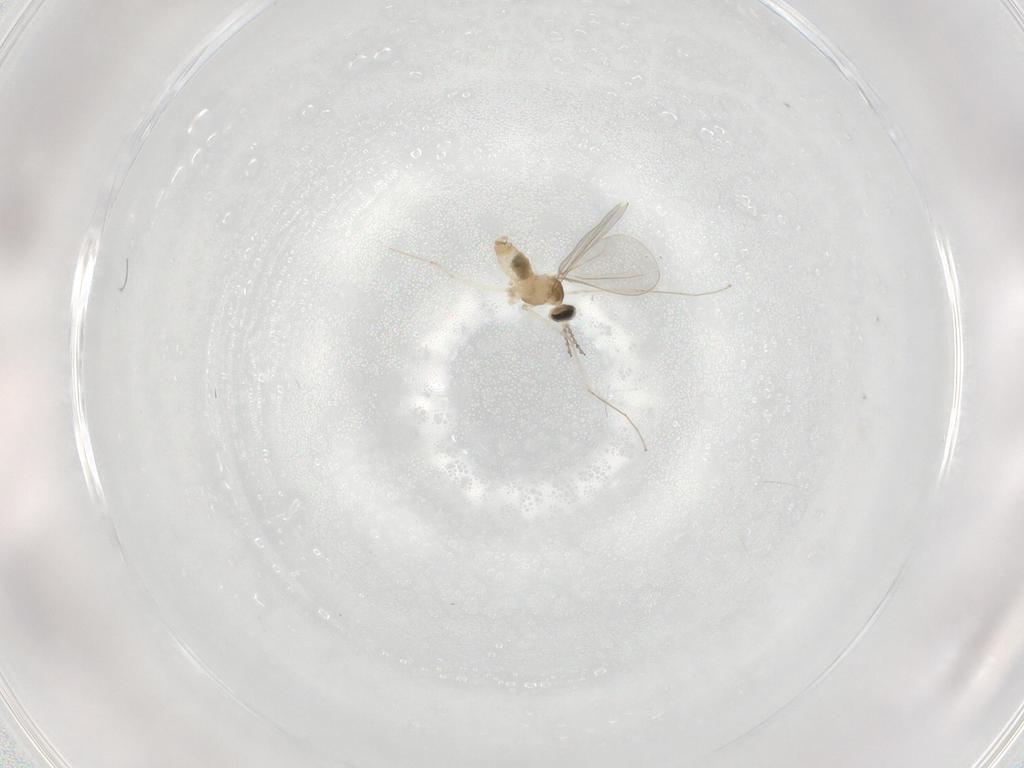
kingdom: Animalia
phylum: Arthropoda
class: Insecta
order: Diptera
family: Cecidomyiidae
